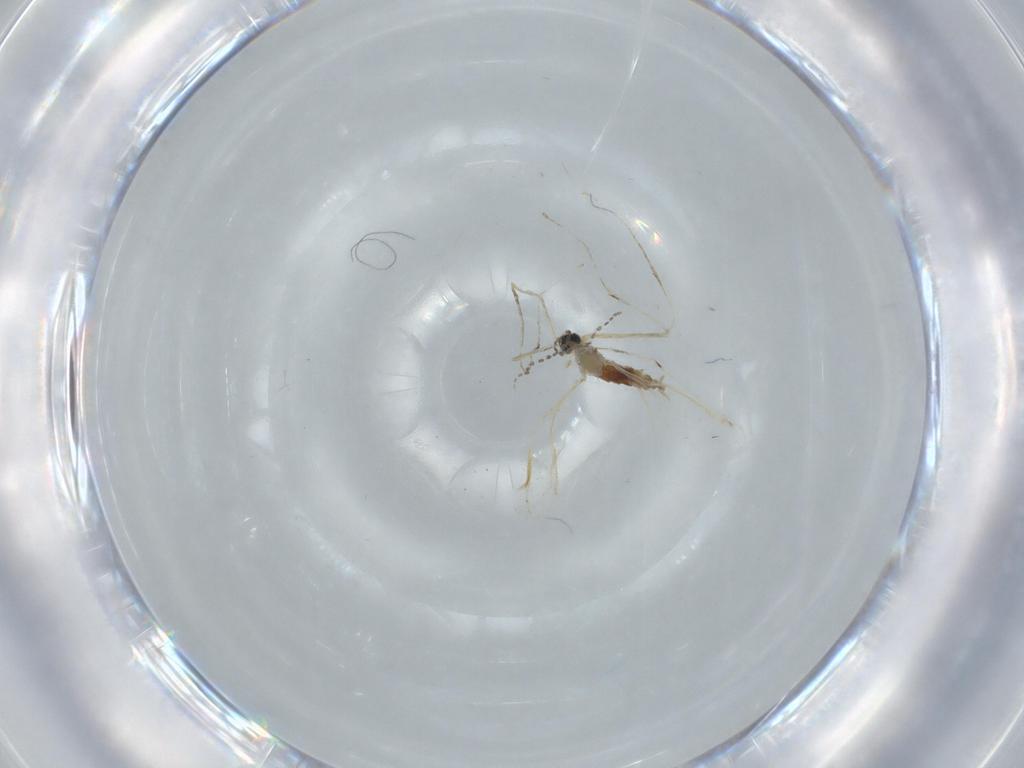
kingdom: Animalia
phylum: Arthropoda
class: Insecta
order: Diptera
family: Cecidomyiidae
